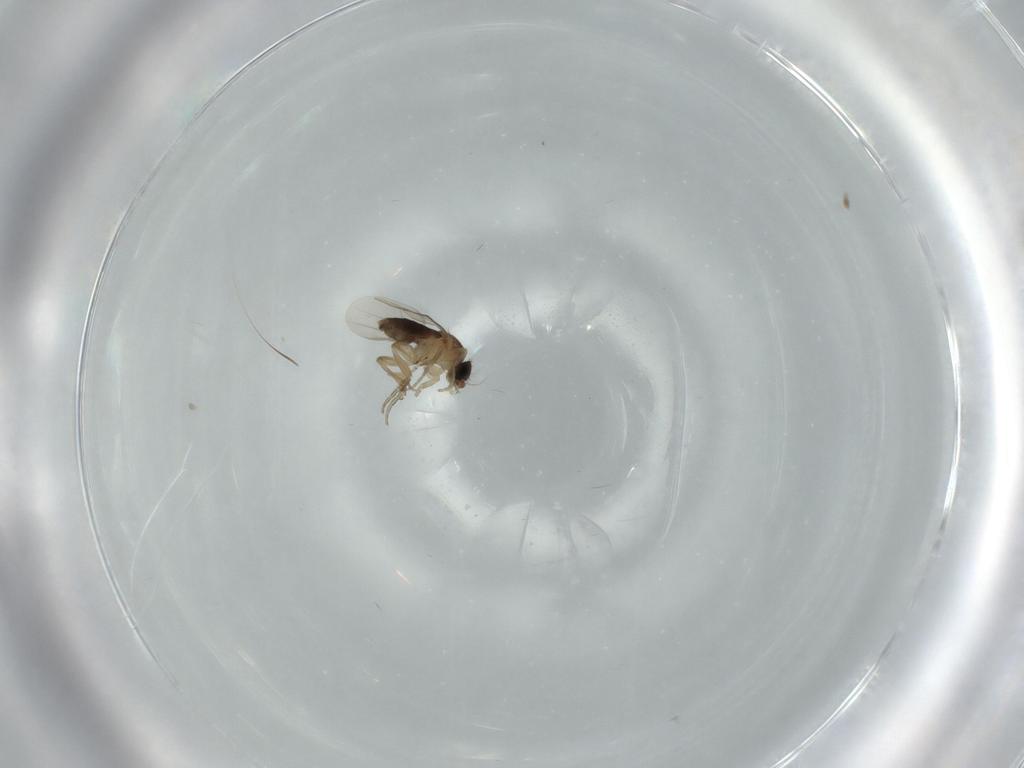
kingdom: Animalia
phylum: Arthropoda
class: Insecta
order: Diptera
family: Phoridae
